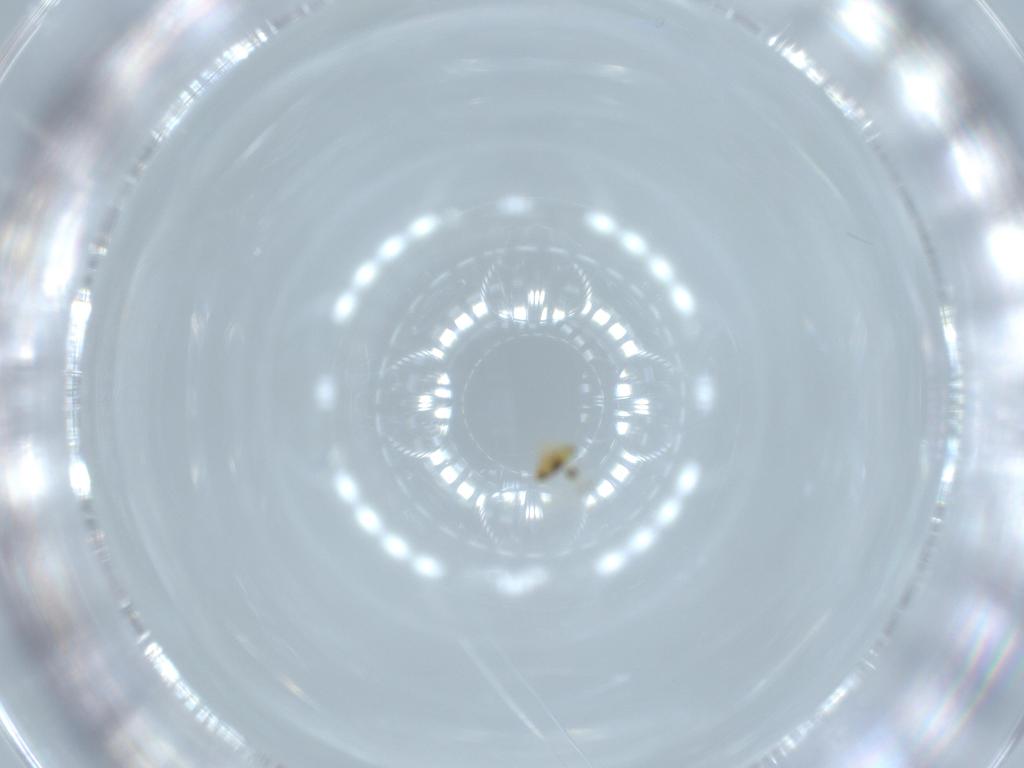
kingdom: Animalia
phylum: Arthropoda
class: Insecta
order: Hymenoptera
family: Signiphoridae
